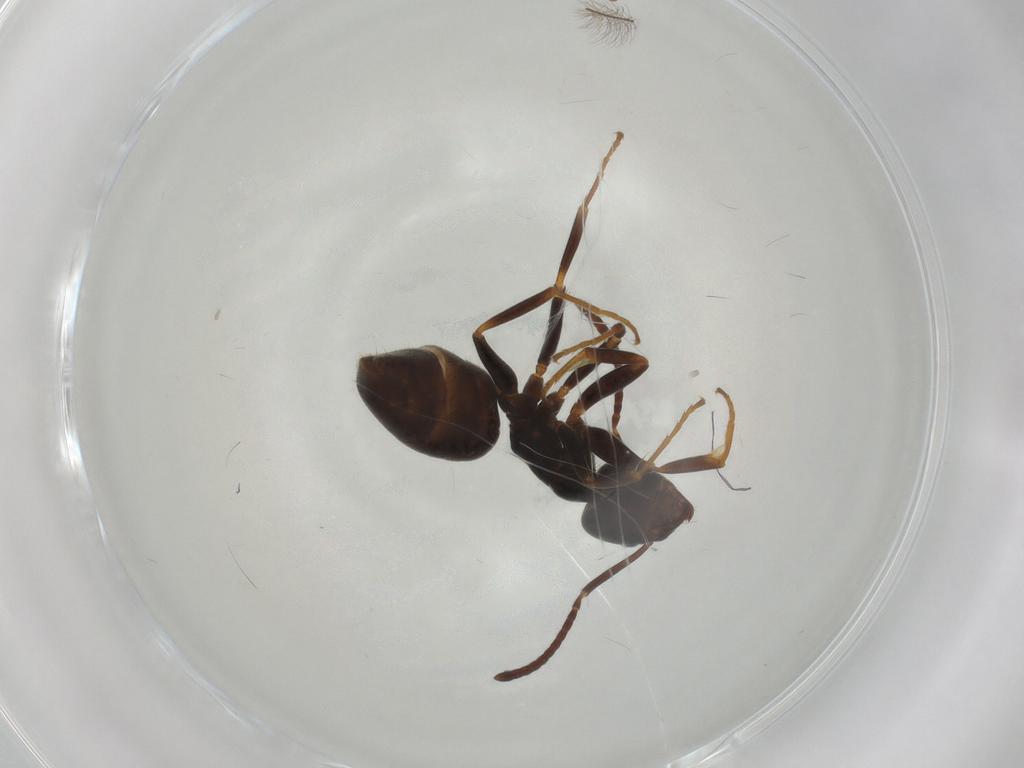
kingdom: Animalia
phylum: Arthropoda
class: Insecta
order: Hymenoptera
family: Formicidae
